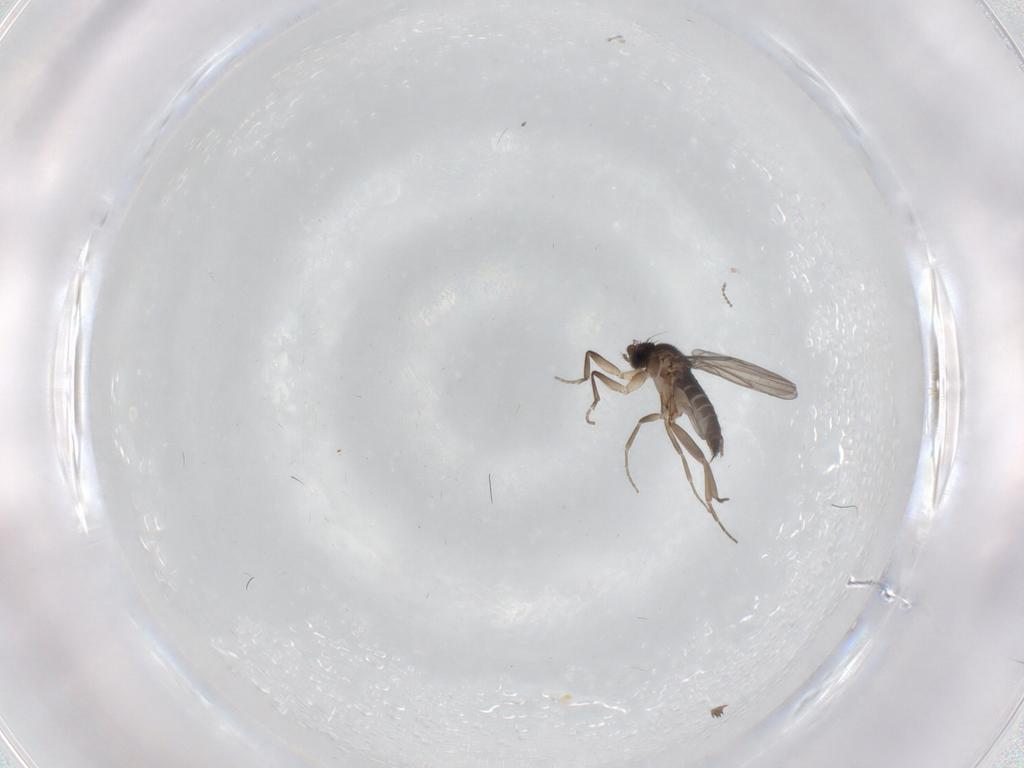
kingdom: Animalia
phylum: Arthropoda
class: Insecta
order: Diptera
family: Phoridae
